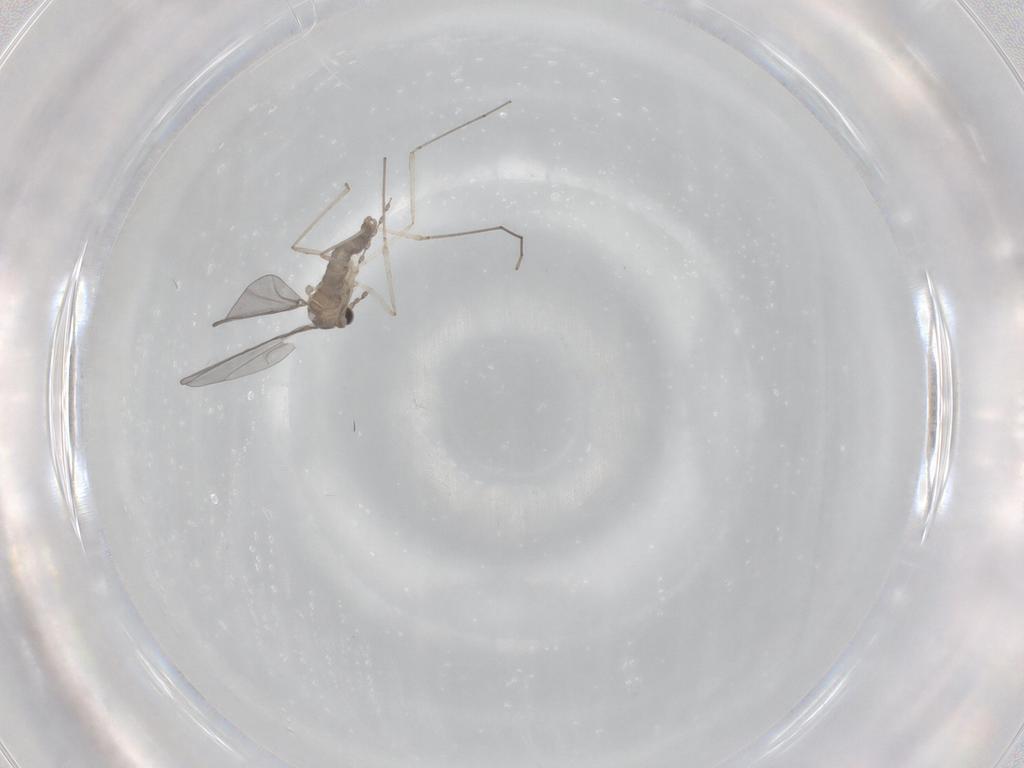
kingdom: Animalia
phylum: Arthropoda
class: Insecta
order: Diptera
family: Cecidomyiidae
